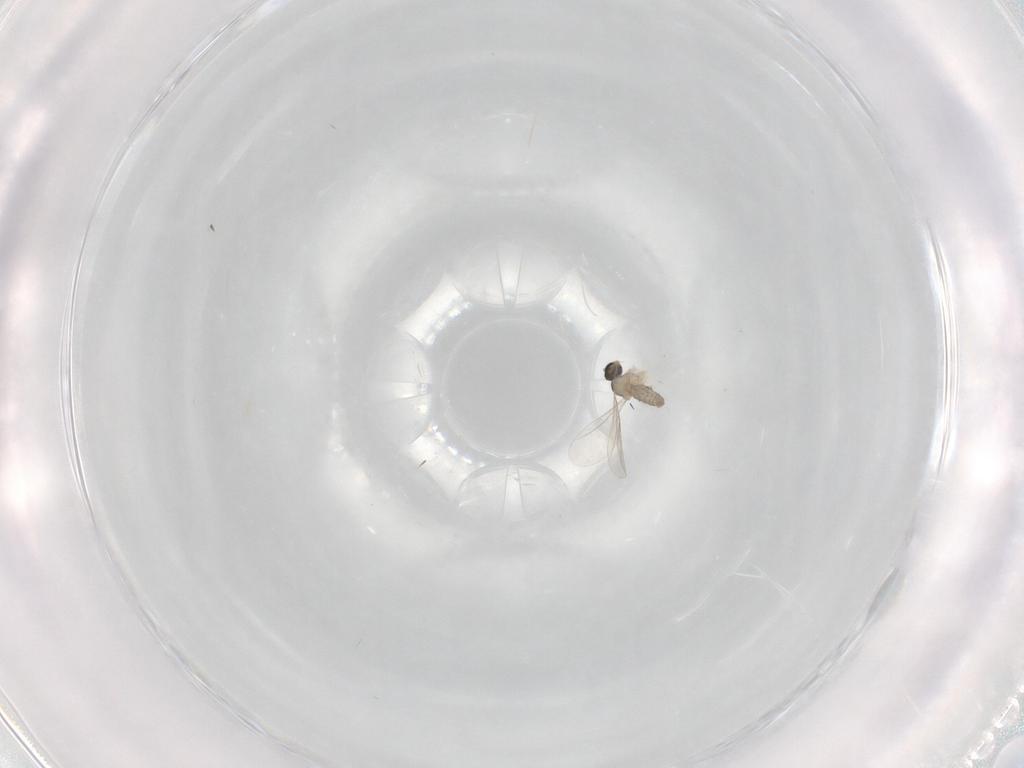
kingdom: Animalia
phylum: Arthropoda
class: Insecta
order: Diptera
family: Cecidomyiidae
